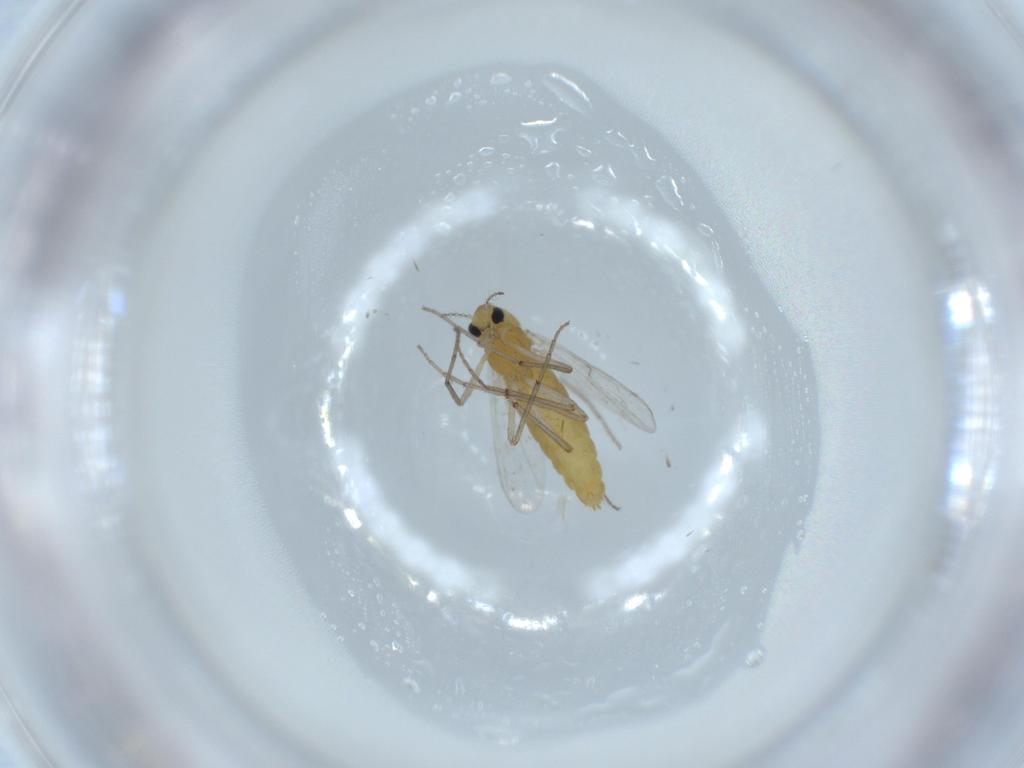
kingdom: Animalia
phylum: Arthropoda
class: Insecta
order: Diptera
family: Chironomidae
